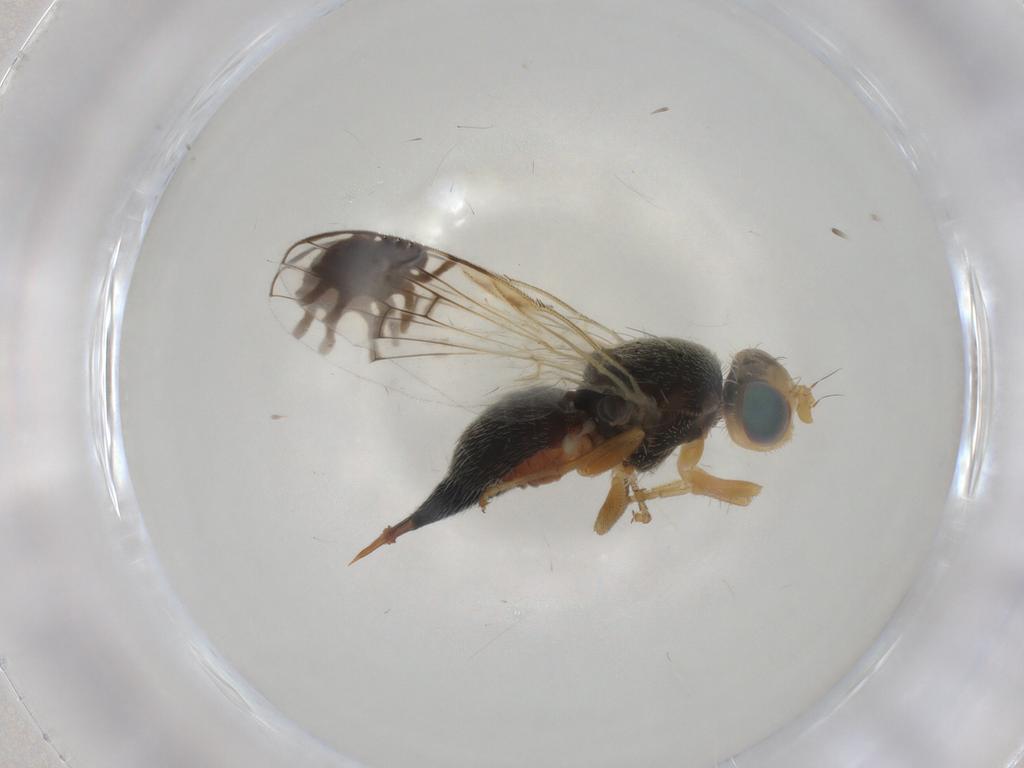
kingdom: Animalia
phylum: Arthropoda
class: Insecta
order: Diptera
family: Tephritidae
